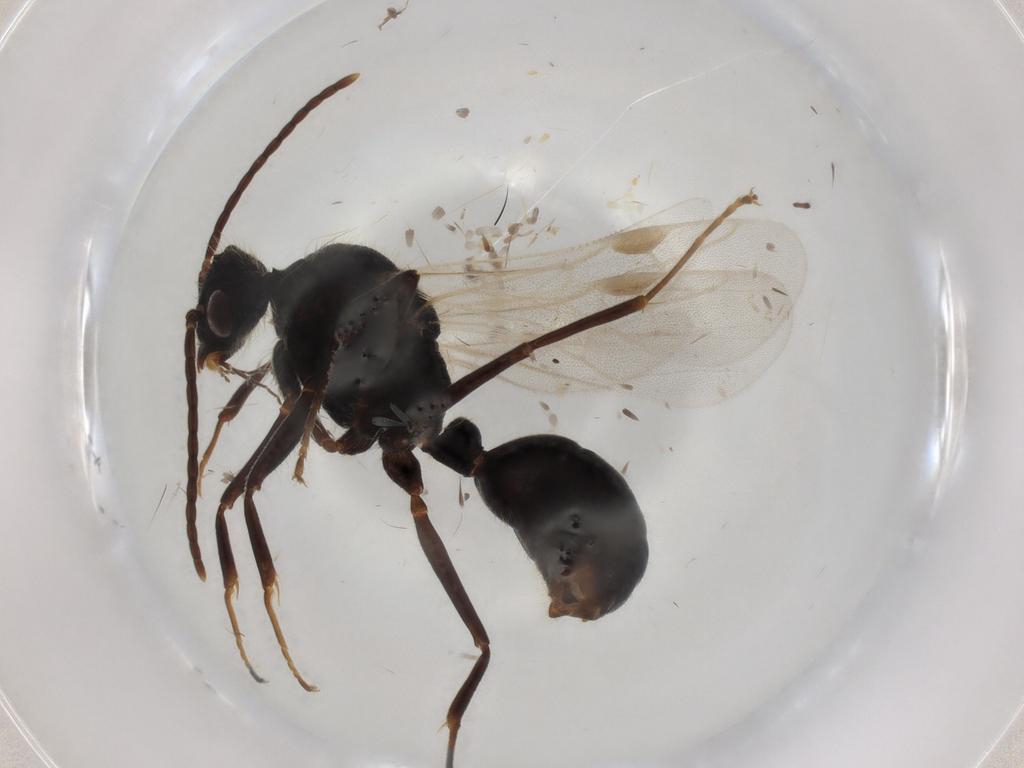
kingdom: Animalia
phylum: Arthropoda
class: Insecta
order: Hymenoptera
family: Formicidae
